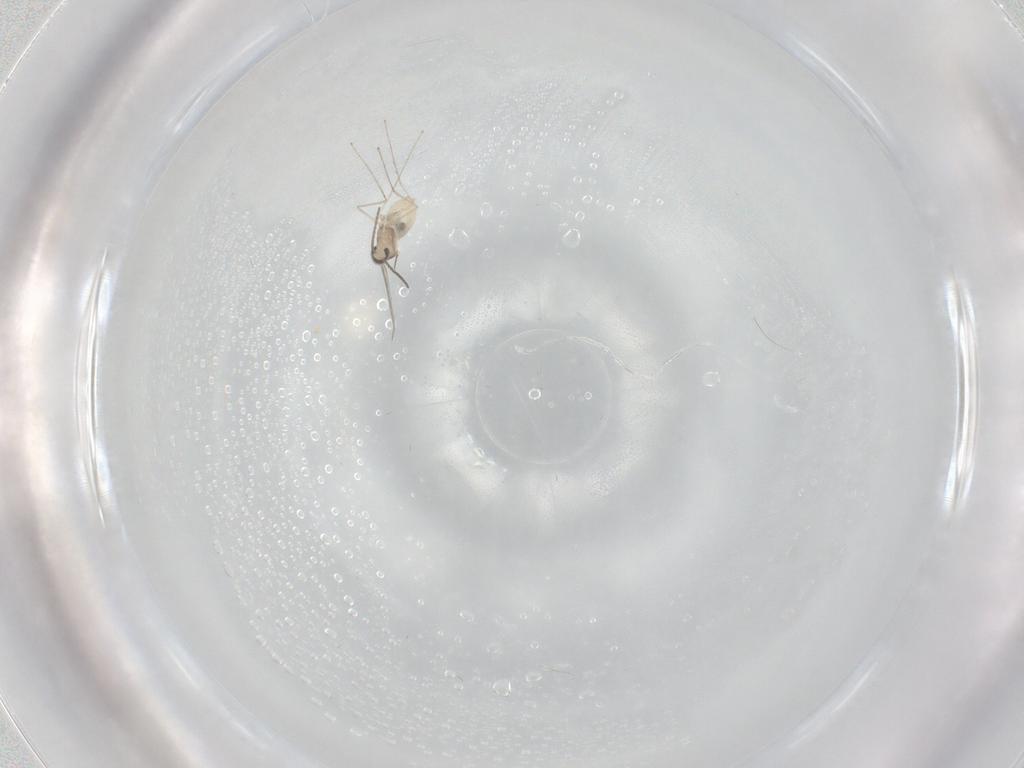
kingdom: Animalia
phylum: Arthropoda
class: Insecta
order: Diptera
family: Cecidomyiidae
